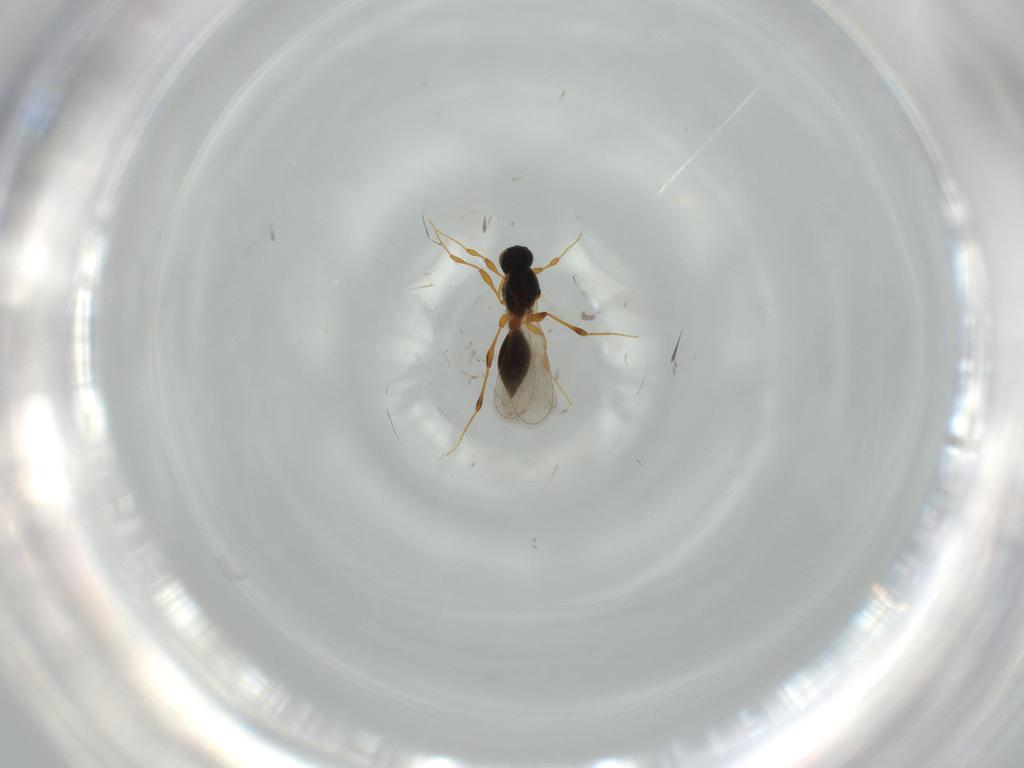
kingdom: Animalia
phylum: Arthropoda
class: Insecta
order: Hymenoptera
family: Platygastridae
